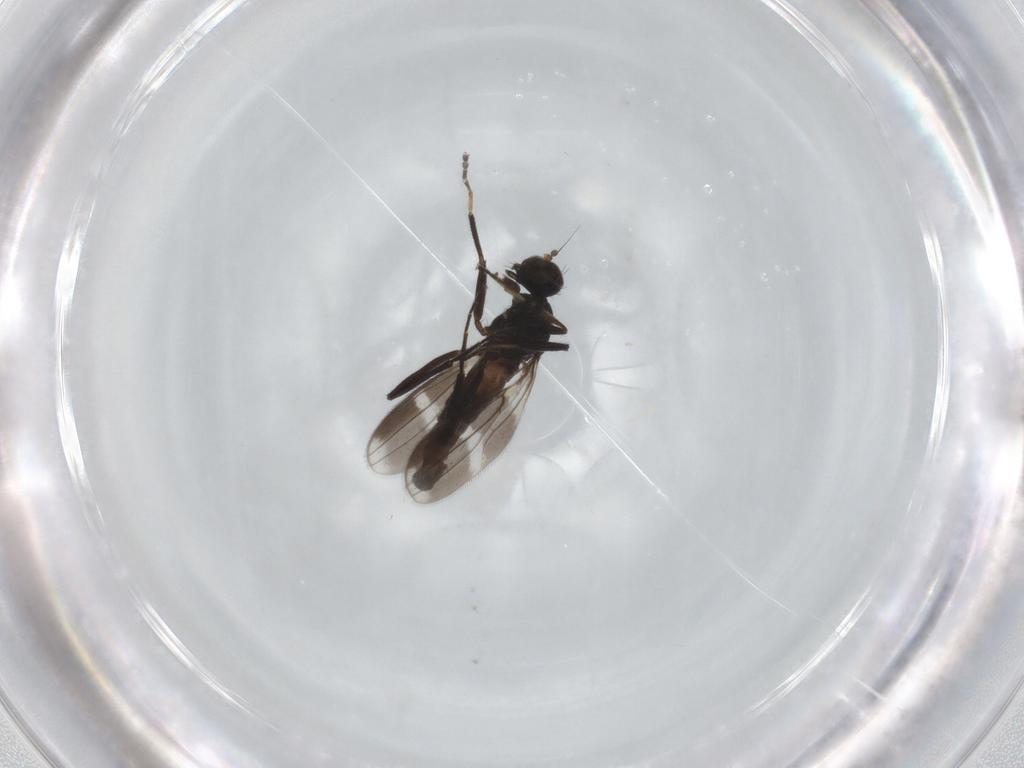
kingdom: Animalia
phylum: Arthropoda
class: Insecta
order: Diptera
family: Hybotidae
